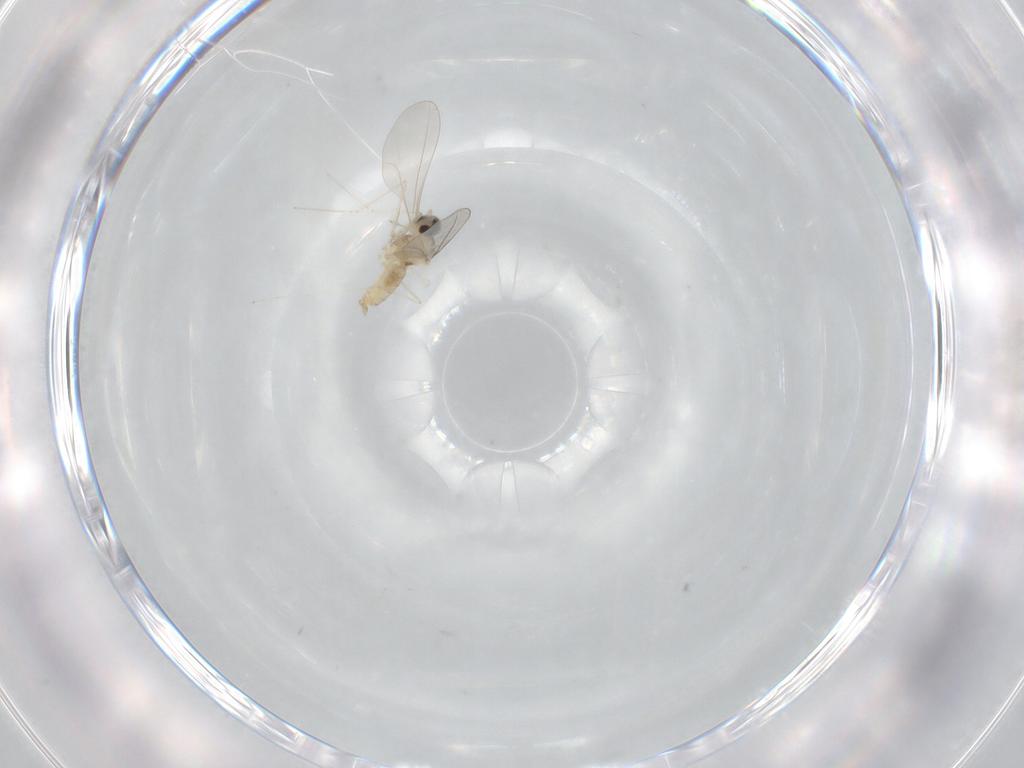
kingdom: Animalia
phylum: Arthropoda
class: Insecta
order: Diptera
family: Cecidomyiidae
